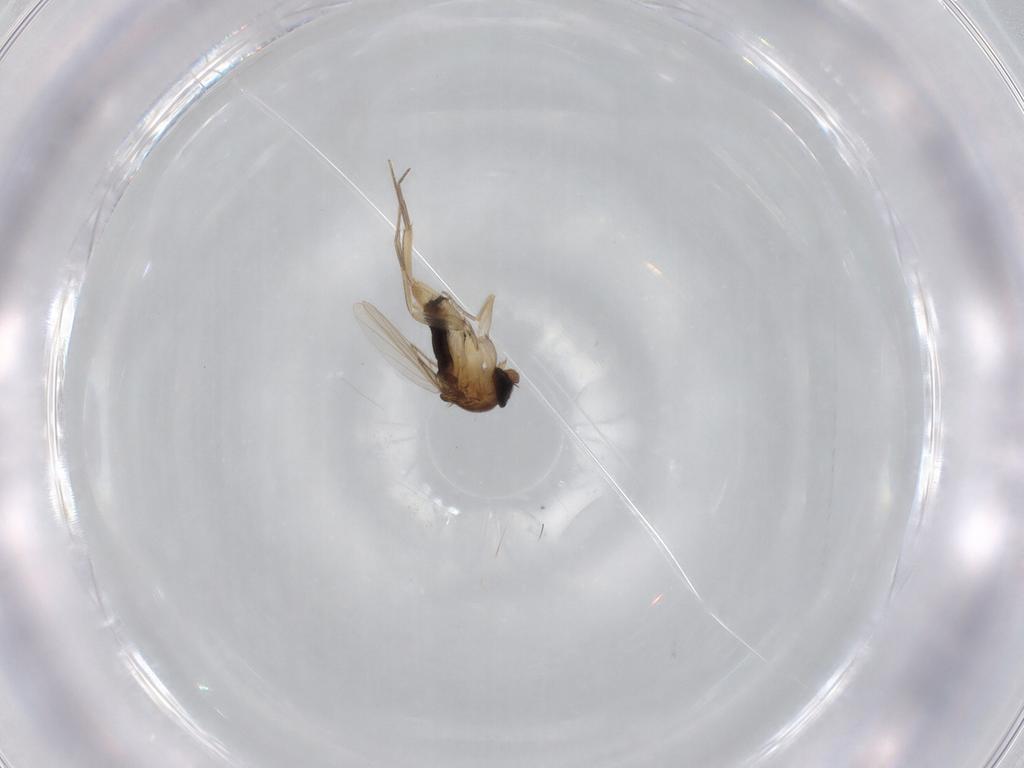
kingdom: Animalia
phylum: Arthropoda
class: Insecta
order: Diptera
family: Phoridae
